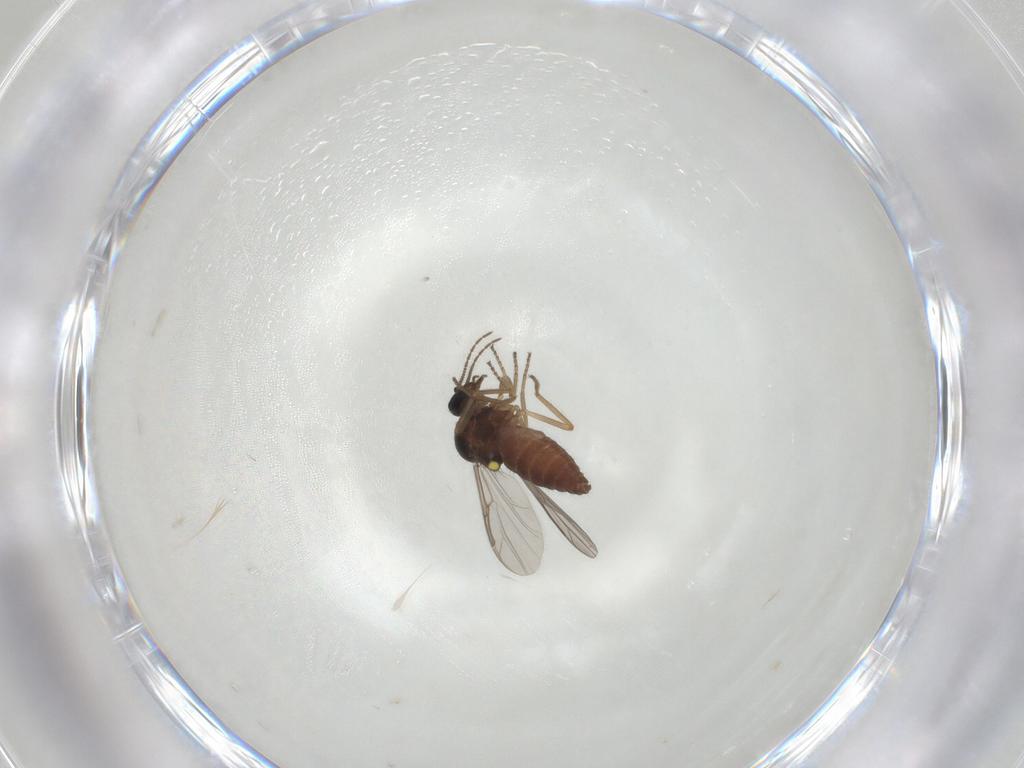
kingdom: Animalia
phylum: Arthropoda
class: Insecta
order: Diptera
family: Ceratopogonidae
